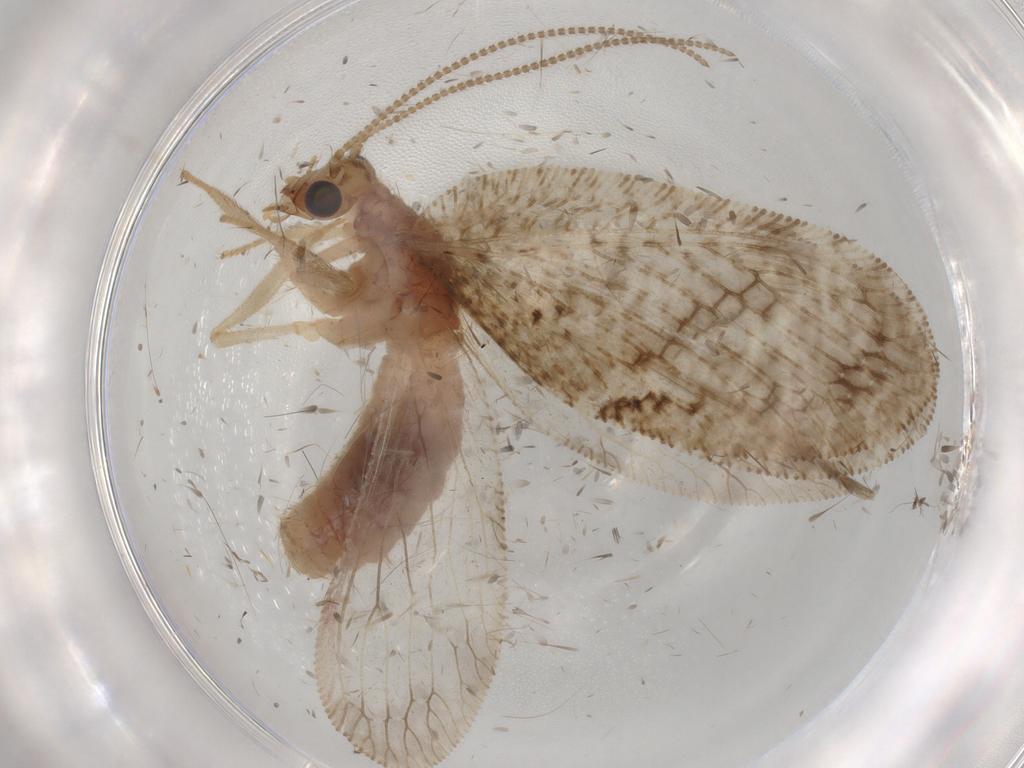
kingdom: Animalia
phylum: Arthropoda
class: Insecta
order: Neuroptera
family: Hemerobiidae
